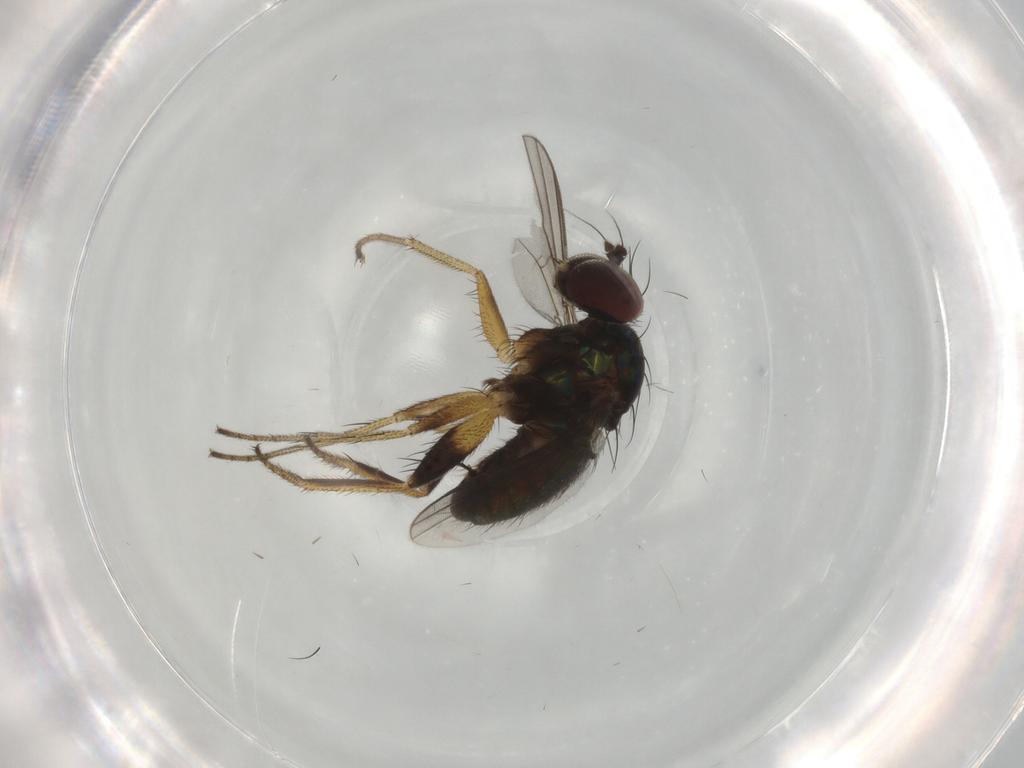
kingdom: Animalia
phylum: Arthropoda
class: Insecta
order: Diptera
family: Dolichopodidae
